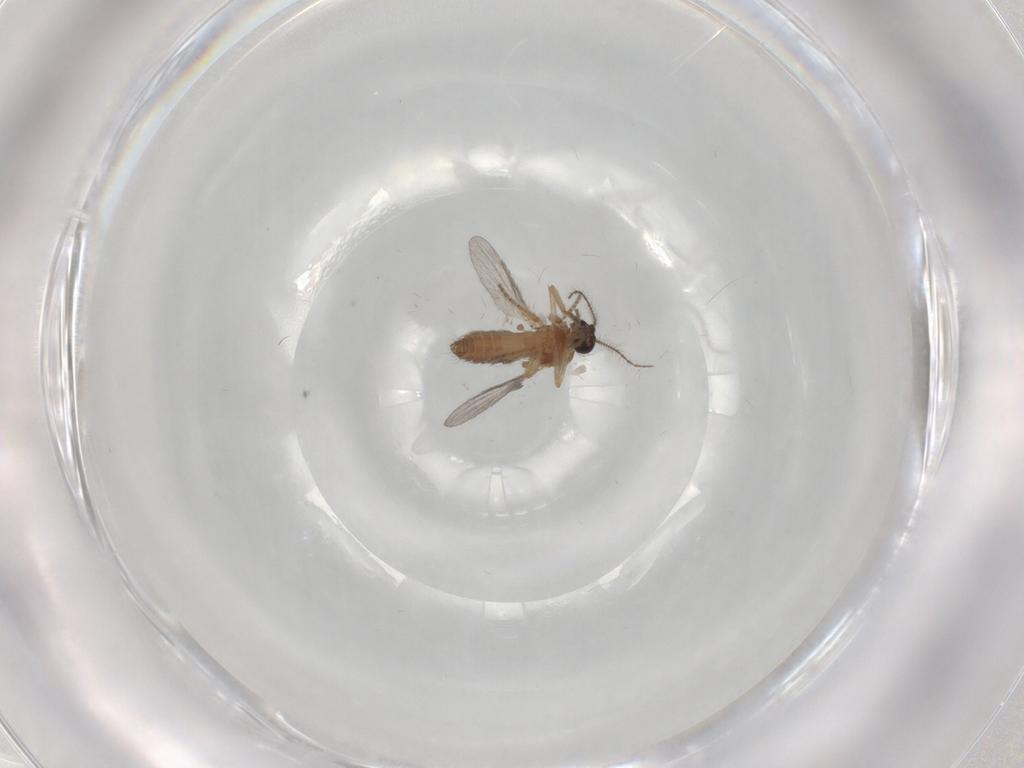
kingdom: Animalia
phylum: Arthropoda
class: Insecta
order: Diptera
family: Ceratopogonidae
